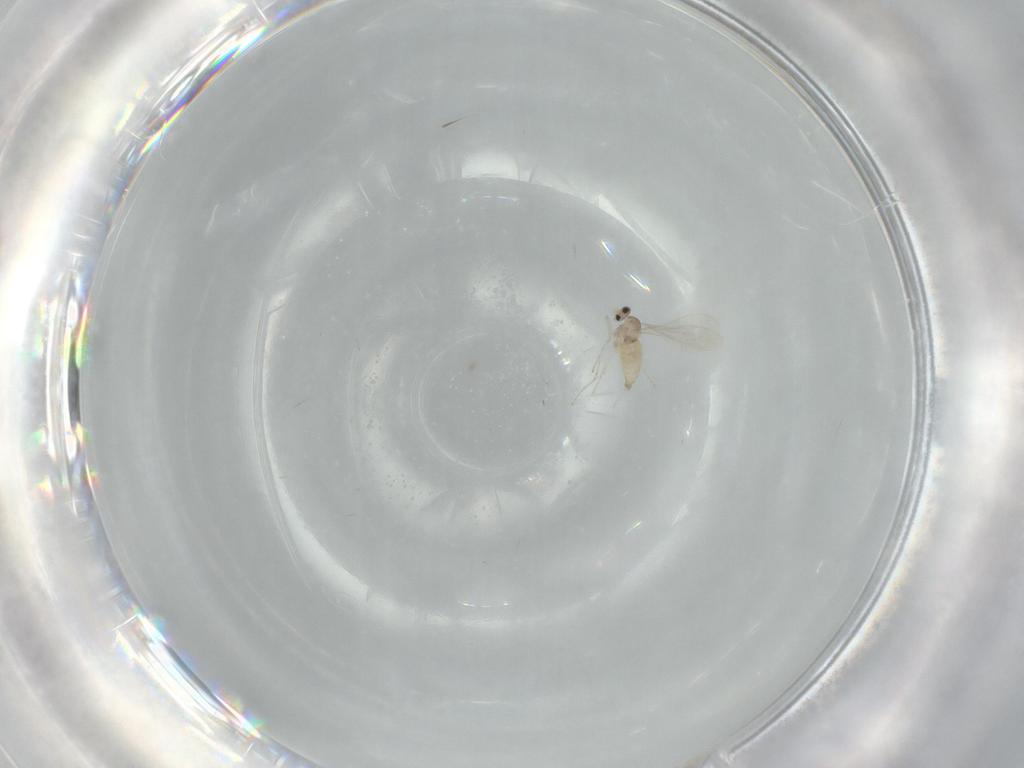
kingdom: Animalia
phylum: Arthropoda
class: Insecta
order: Diptera
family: Cecidomyiidae
